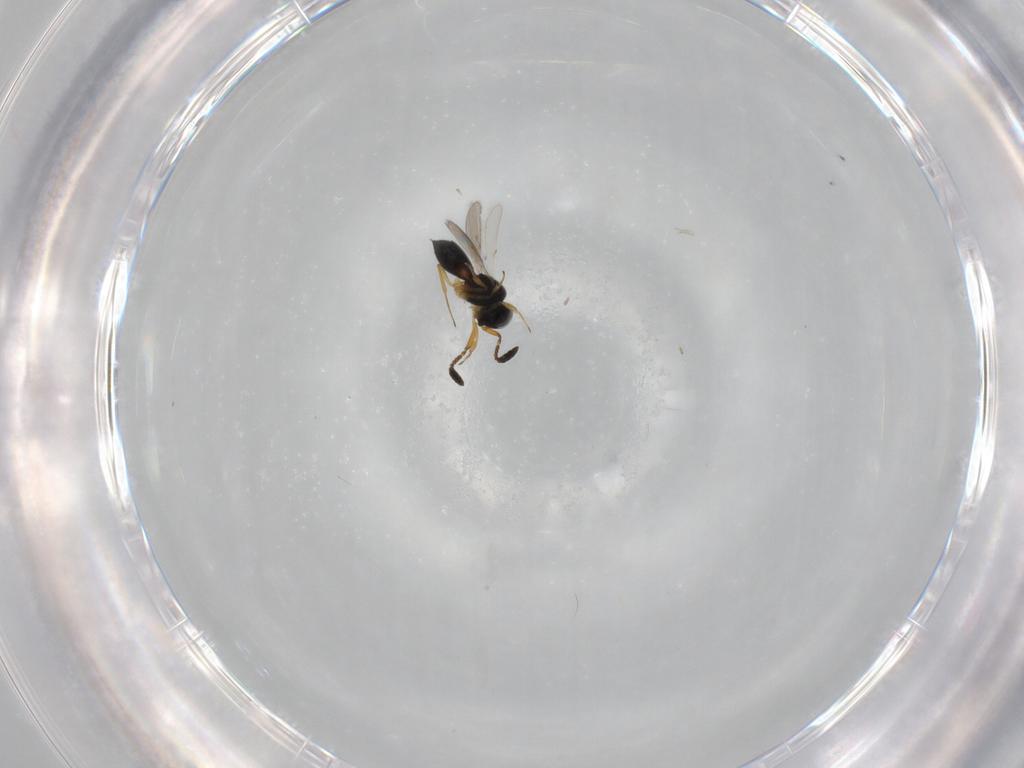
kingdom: Animalia
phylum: Arthropoda
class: Insecta
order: Hymenoptera
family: Scelionidae
